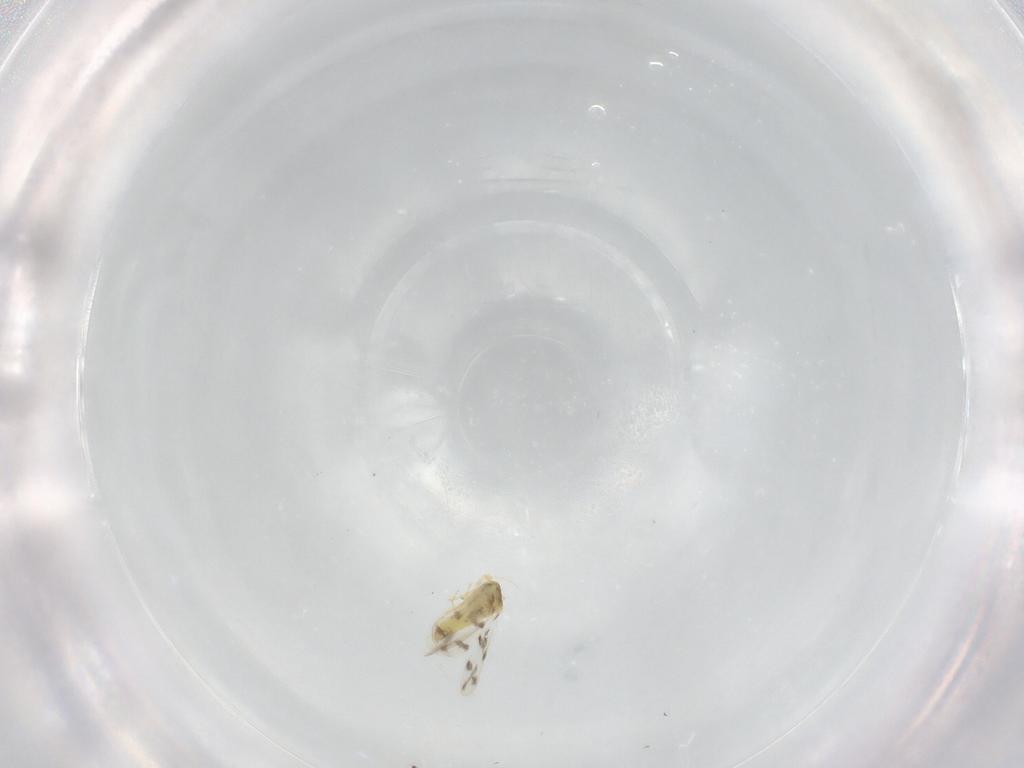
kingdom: Animalia
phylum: Arthropoda
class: Insecta
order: Hemiptera
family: Aleyrodidae
